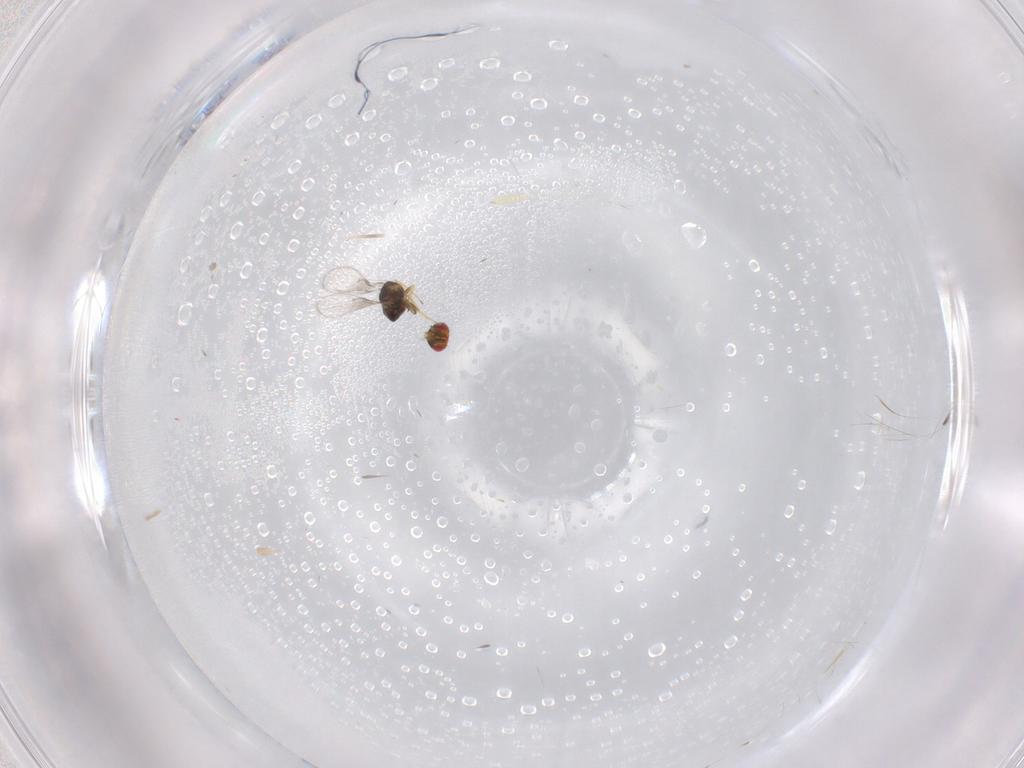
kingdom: Animalia
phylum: Arthropoda
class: Insecta
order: Hymenoptera
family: Trichogrammatidae
